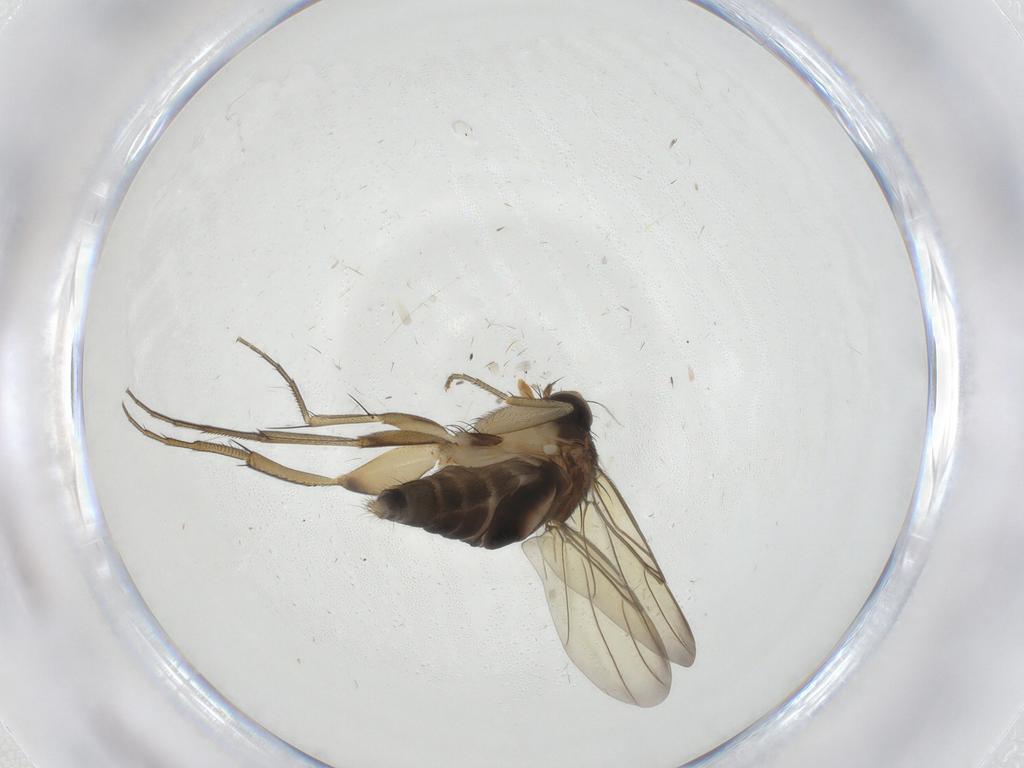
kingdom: Animalia
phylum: Arthropoda
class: Insecta
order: Diptera
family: Phoridae
